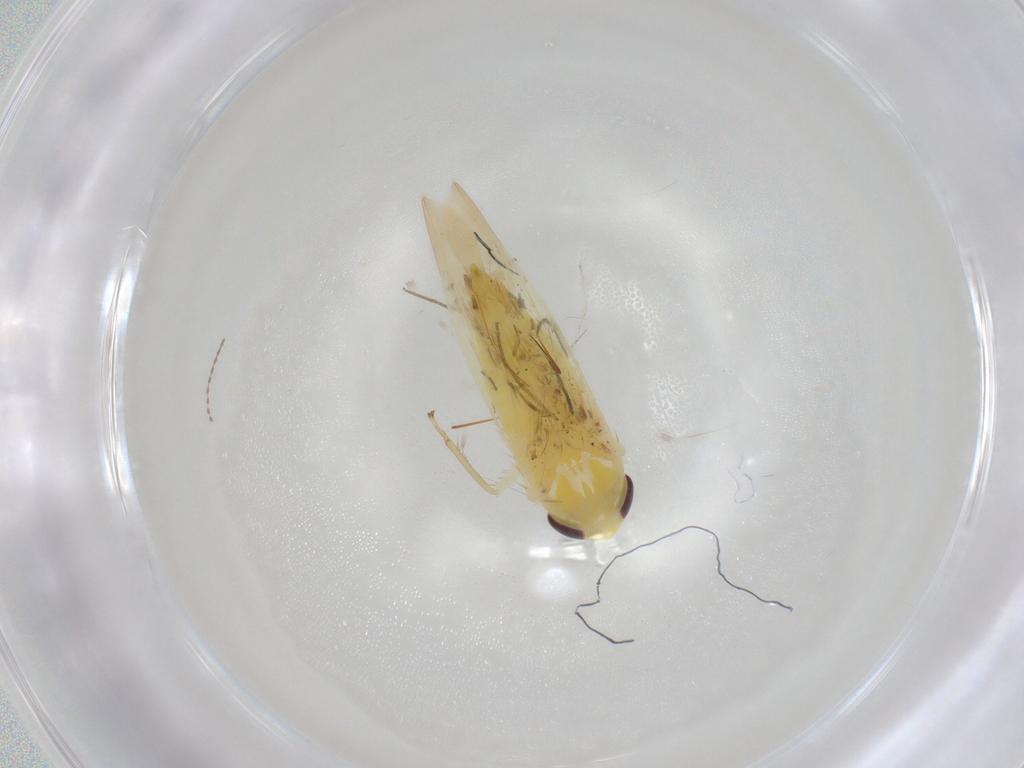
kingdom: Animalia
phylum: Arthropoda
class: Insecta
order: Hemiptera
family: Cicadellidae
